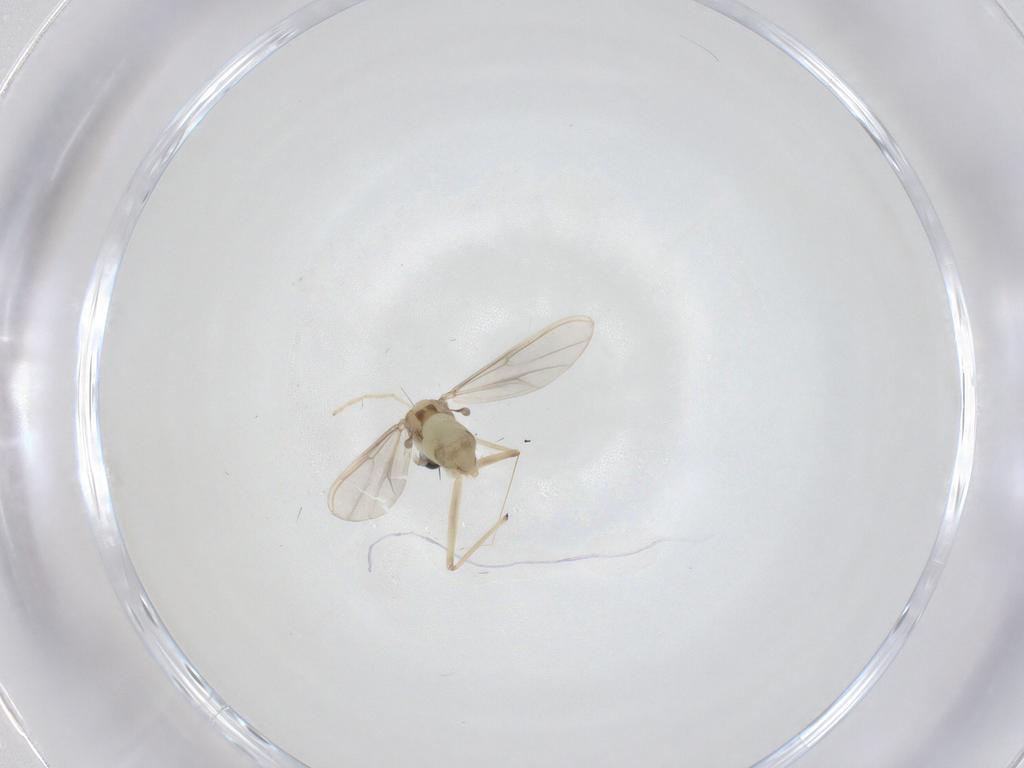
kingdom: Animalia
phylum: Arthropoda
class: Insecta
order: Diptera
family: Chironomidae
